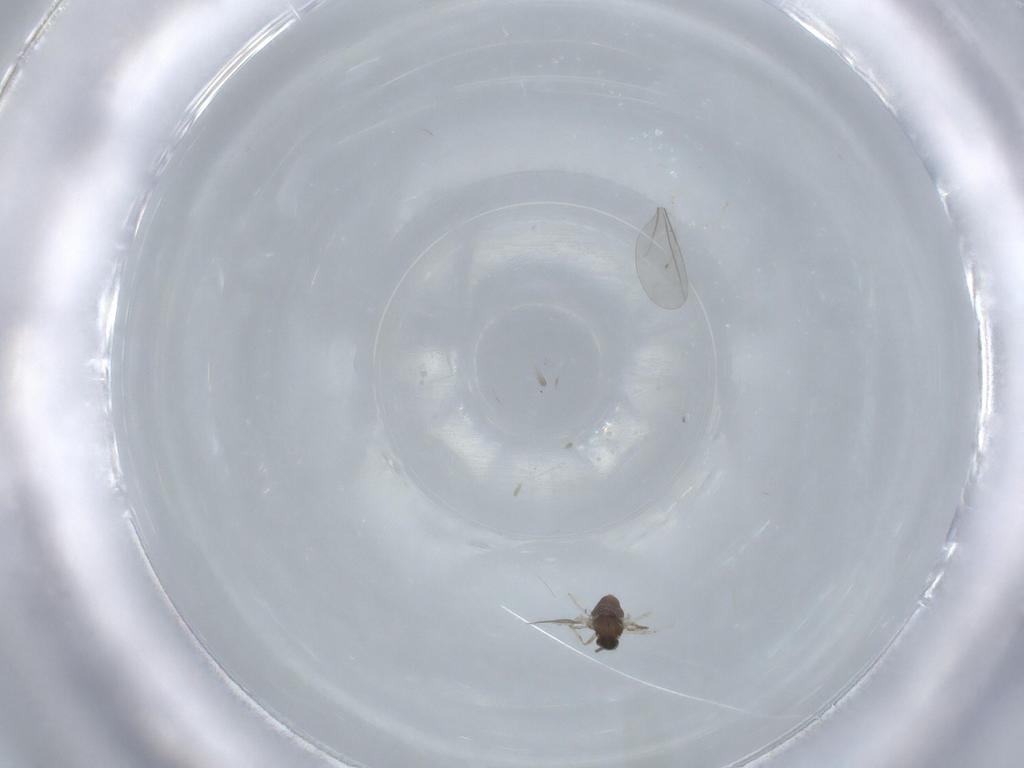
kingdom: Animalia
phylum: Arthropoda
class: Insecta
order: Diptera
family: Cecidomyiidae
